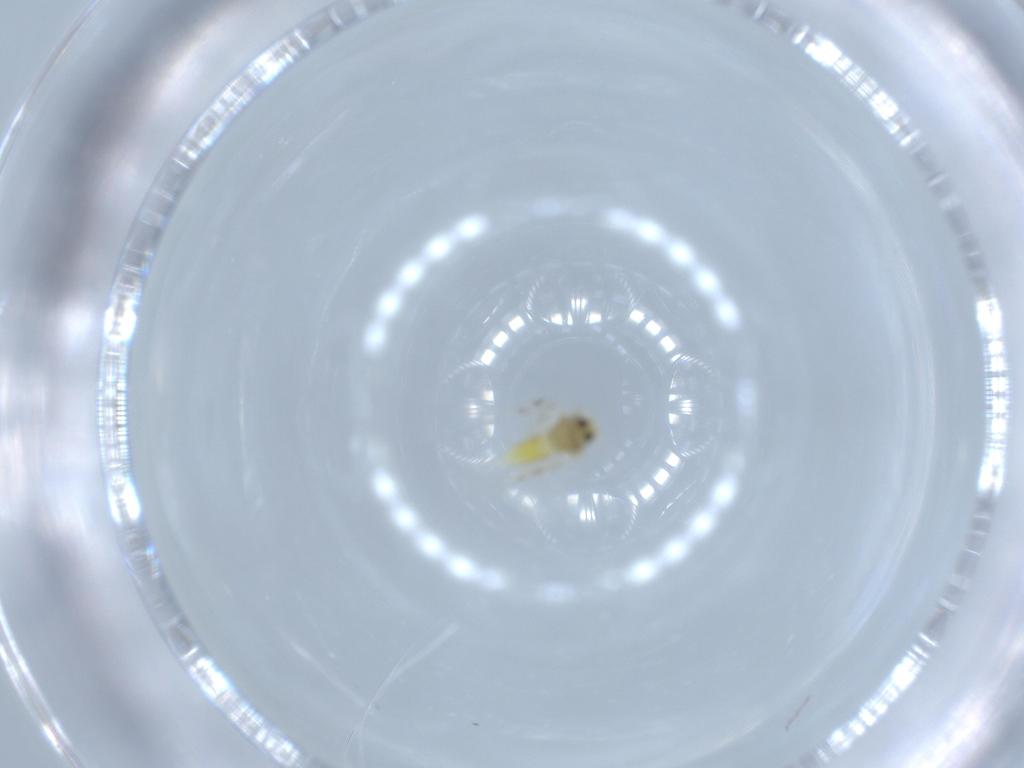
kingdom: Animalia
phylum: Arthropoda
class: Insecta
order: Hemiptera
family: Aleyrodidae
